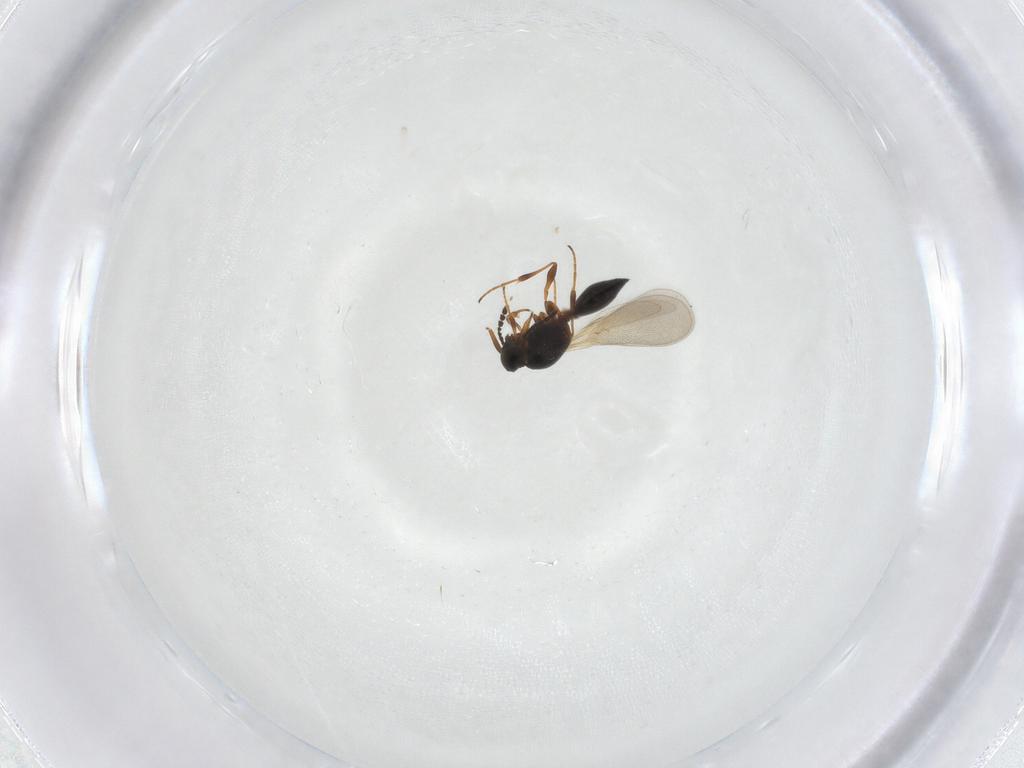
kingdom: Animalia
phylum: Arthropoda
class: Insecta
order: Hymenoptera
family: Platygastridae
